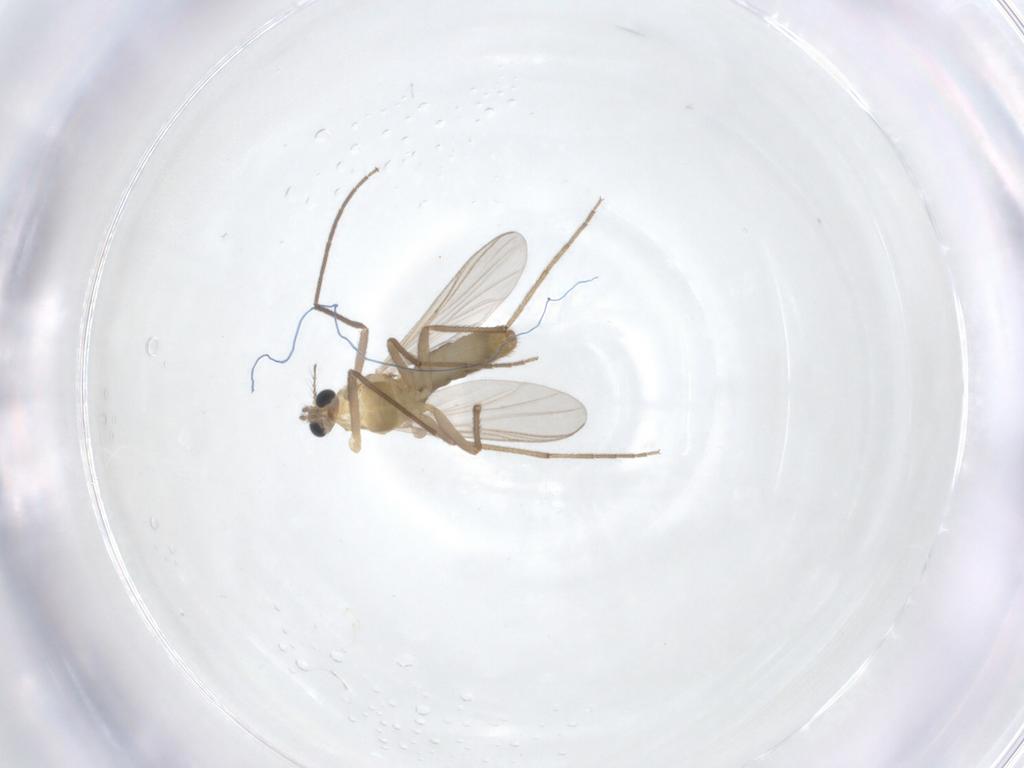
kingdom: Animalia
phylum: Arthropoda
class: Insecta
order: Diptera
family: Chironomidae
